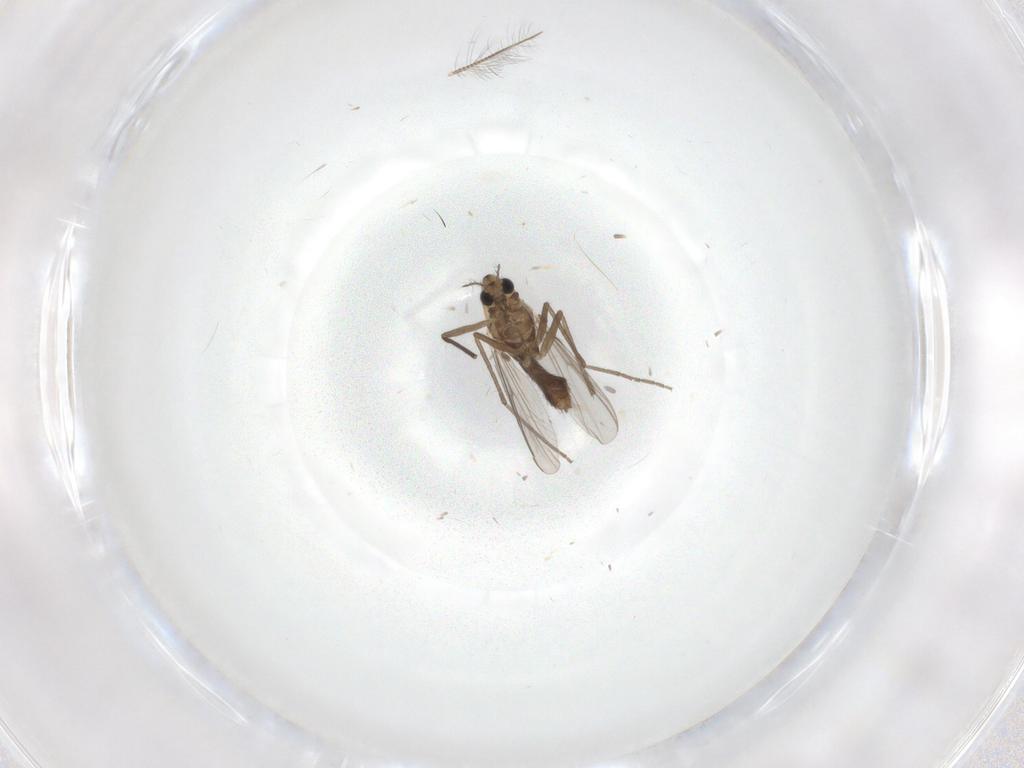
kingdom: Animalia
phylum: Arthropoda
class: Insecta
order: Diptera
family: Chironomidae
